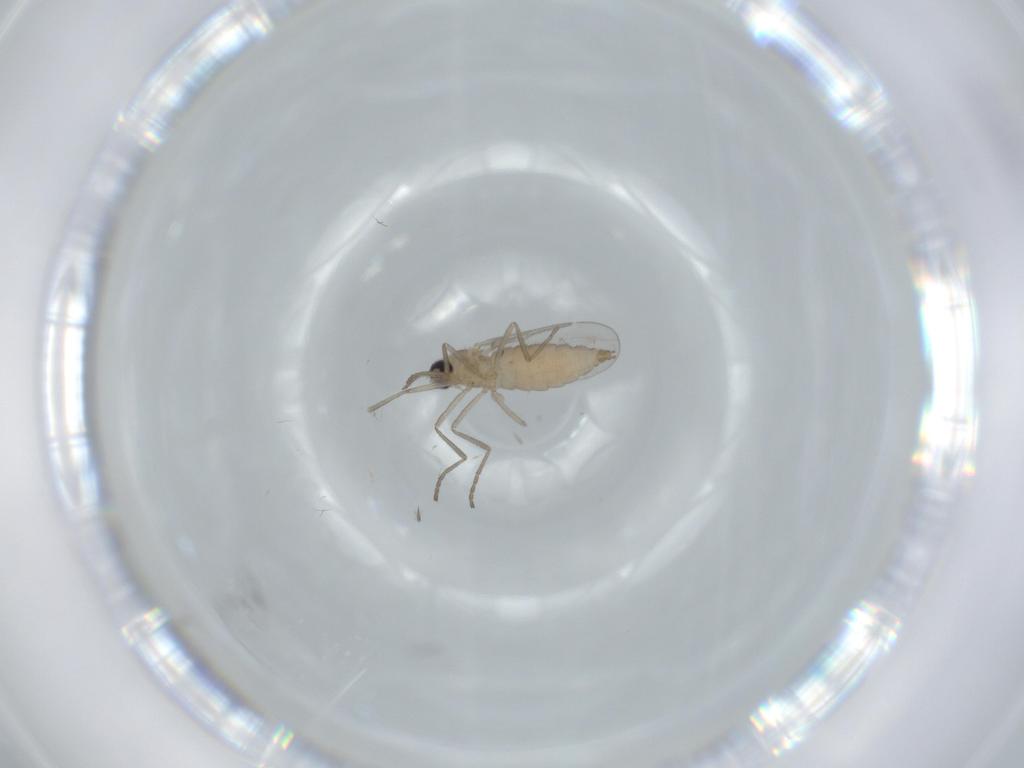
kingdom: Animalia
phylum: Arthropoda
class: Insecta
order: Diptera
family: Psychodidae
